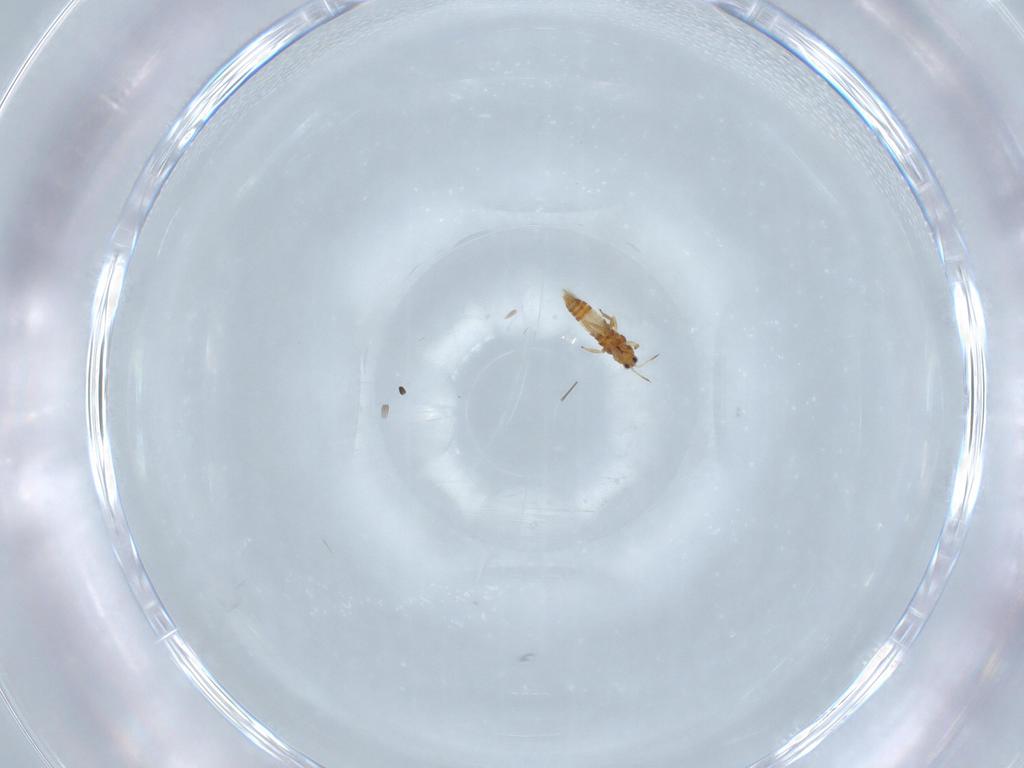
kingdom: Animalia
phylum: Arthropoda
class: Insecta
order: Thysanoptera
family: Thripidae
